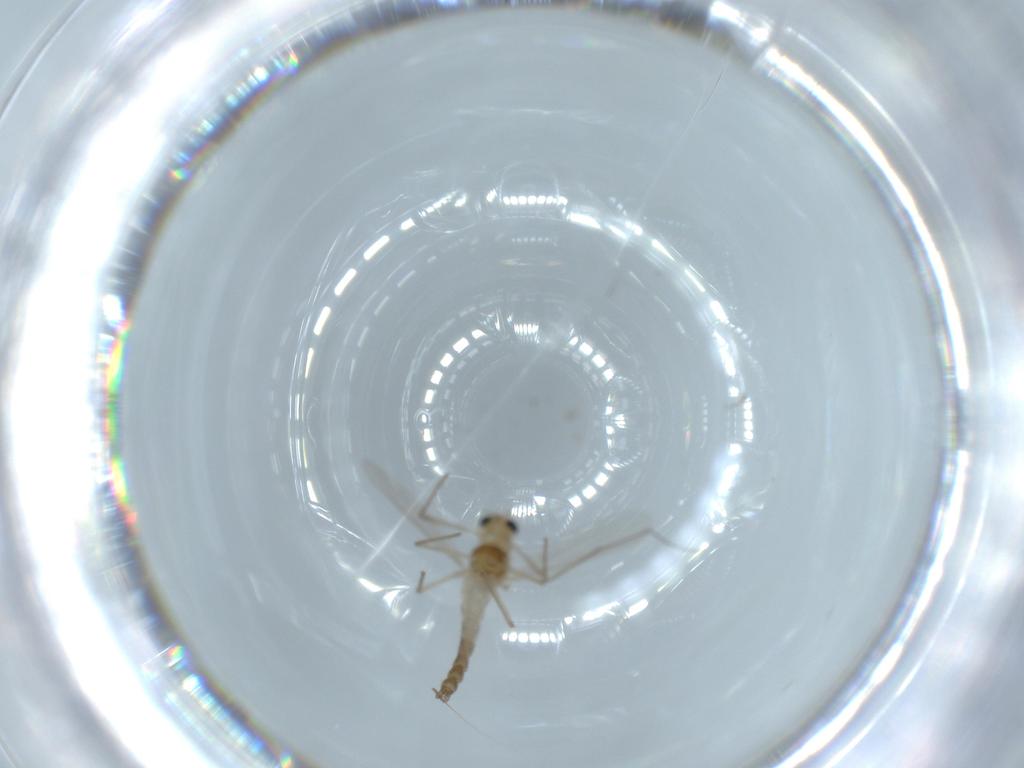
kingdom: Animalia
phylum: Arthropoda
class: Insecta
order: Diptera
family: Chironomidae
